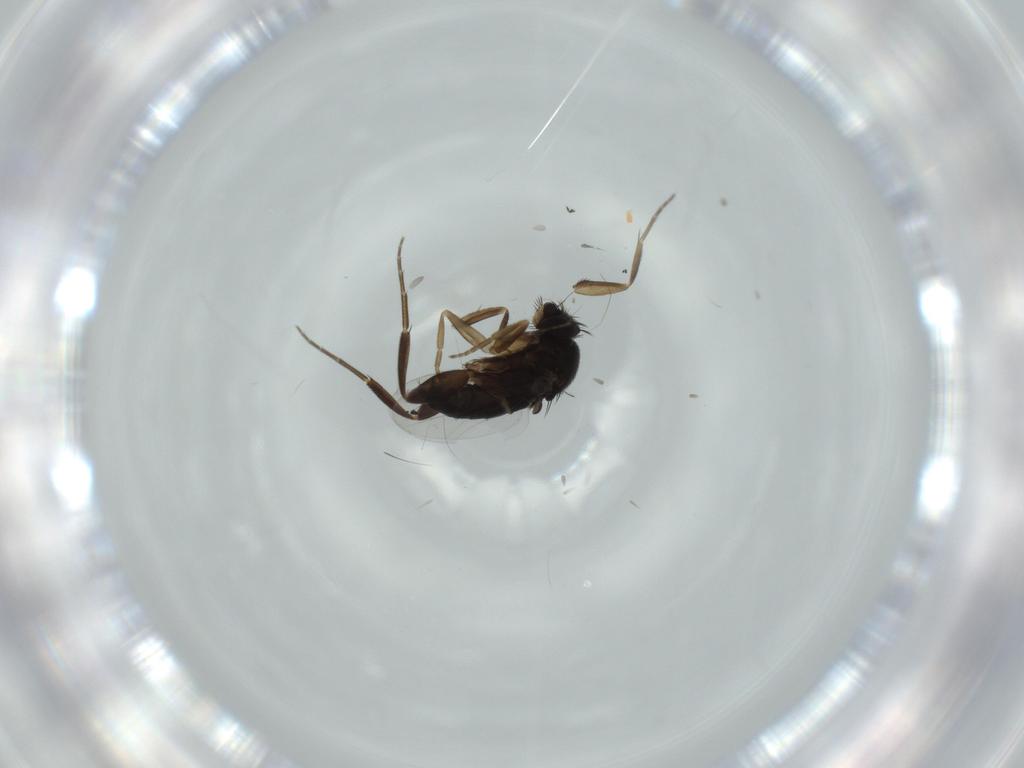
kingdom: Animalia
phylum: Arthropoda
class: Insecta
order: Diptera
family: Phoridae
